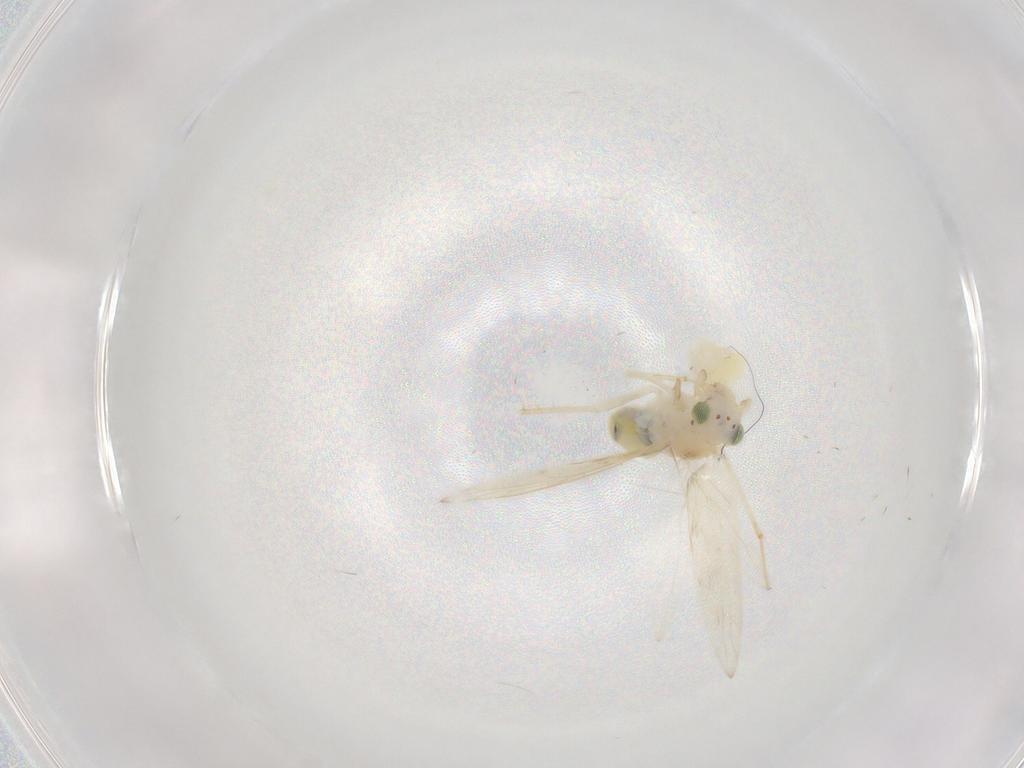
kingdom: Animalia
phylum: Arthropoda
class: Insecta
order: Psocodea
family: Lepidopsocidae
